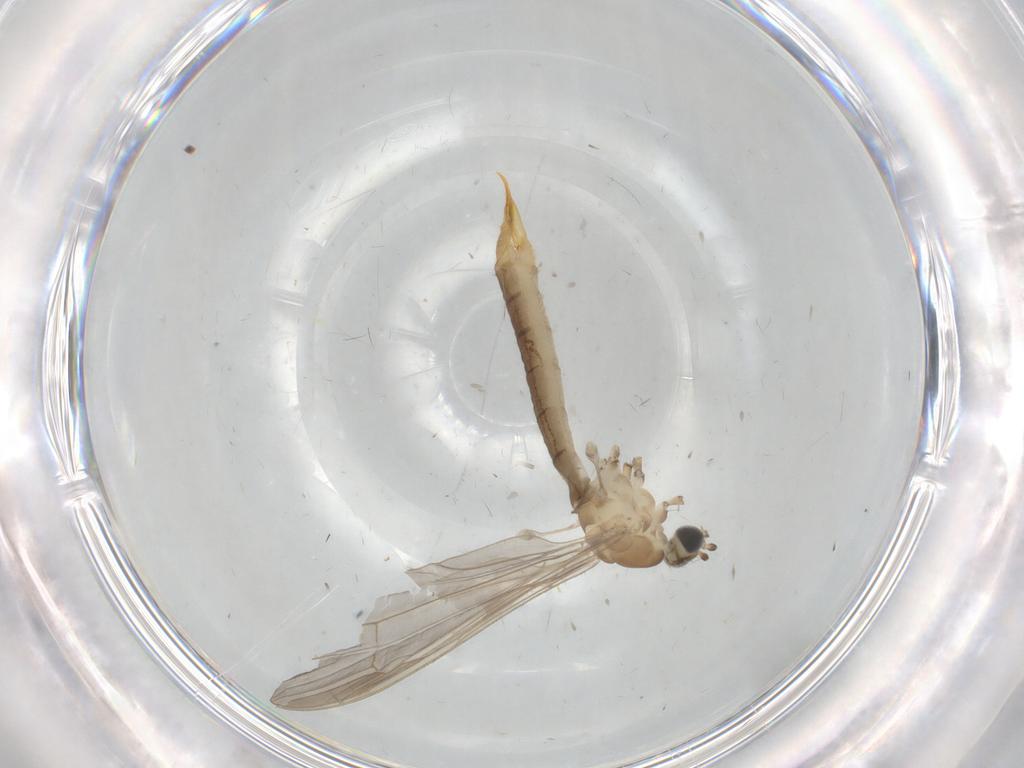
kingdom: Animalia
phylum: Arthropoda
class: Insecta
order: Diptera
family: Limoniidae
